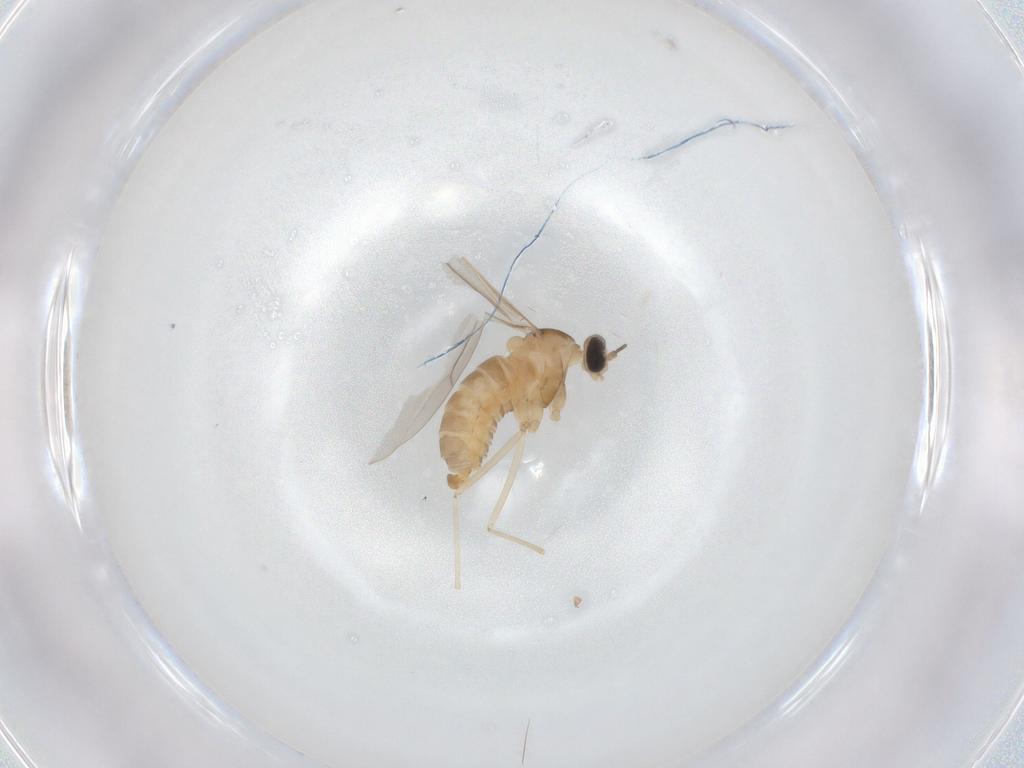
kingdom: Animalia
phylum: Arthropoda
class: Insecta
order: Diptera
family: Cecidomyiidae
